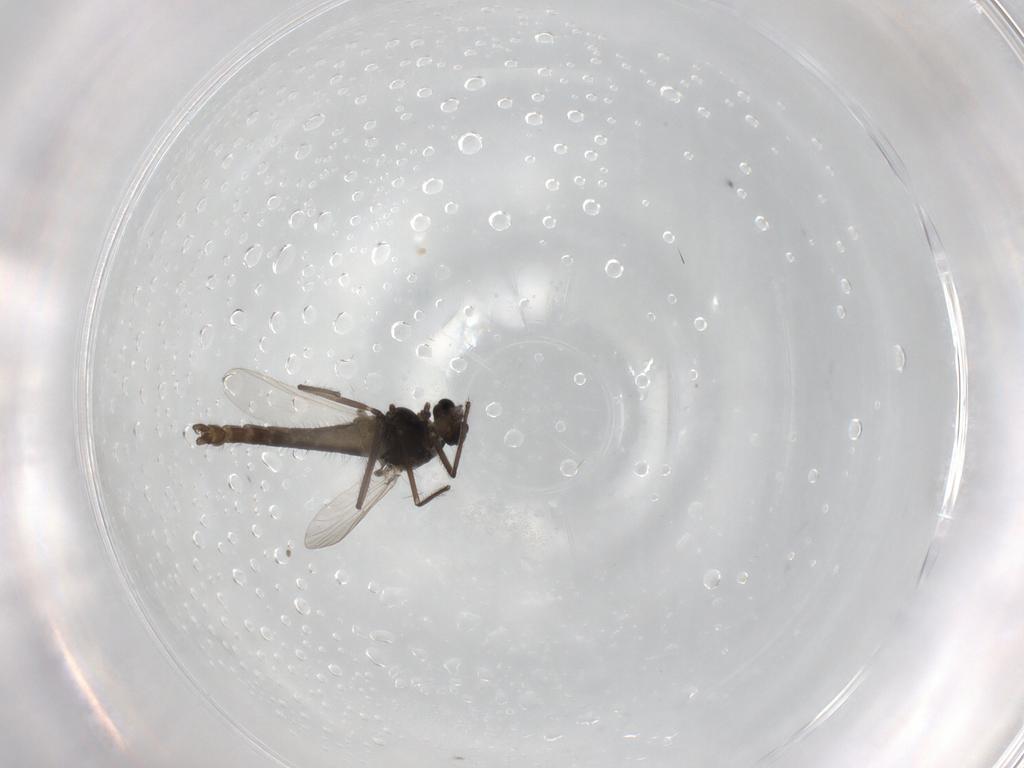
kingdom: Animalia
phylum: Arthropoda
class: Insecta
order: Diptera
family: Chironomidae
